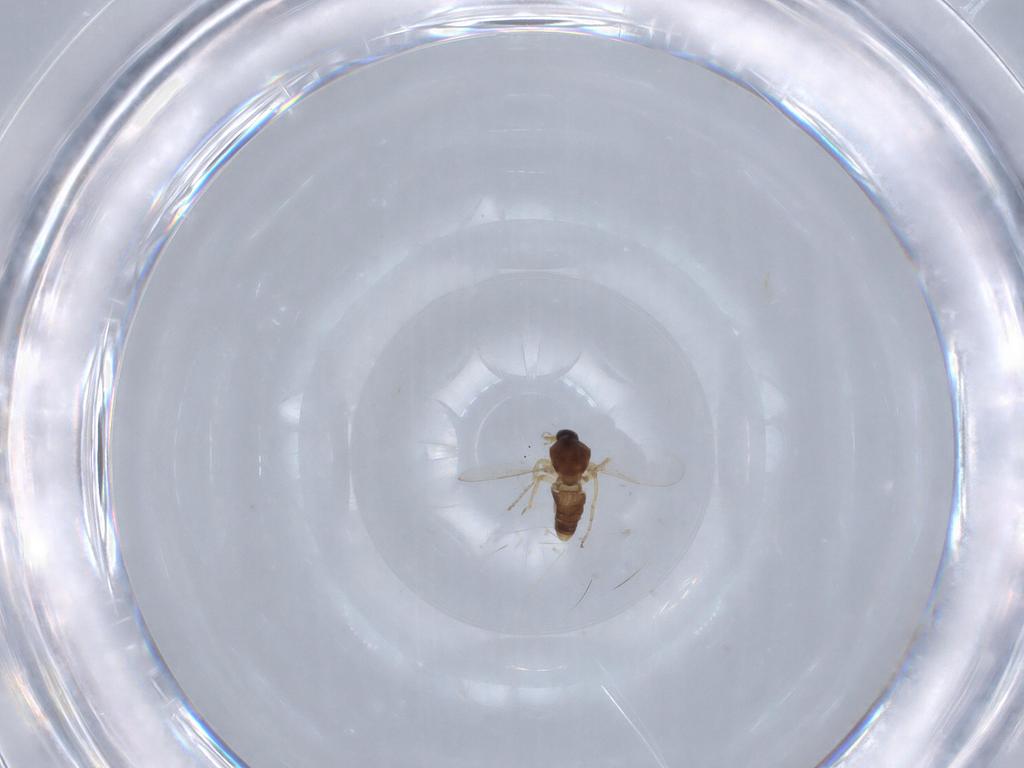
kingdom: Animalia
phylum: Arthropoda
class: Insecta
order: Diptera
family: Ceratopogonidae
